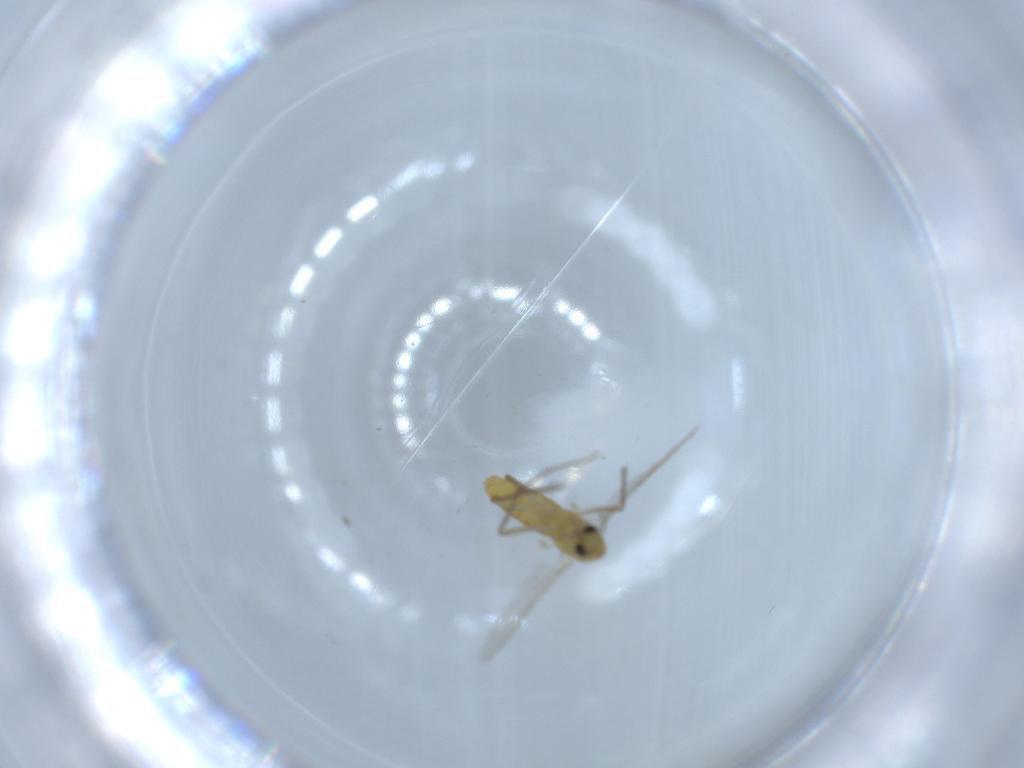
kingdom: Animalia
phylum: Arthropoda
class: Insecta
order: Diptera
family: Chironomidae
